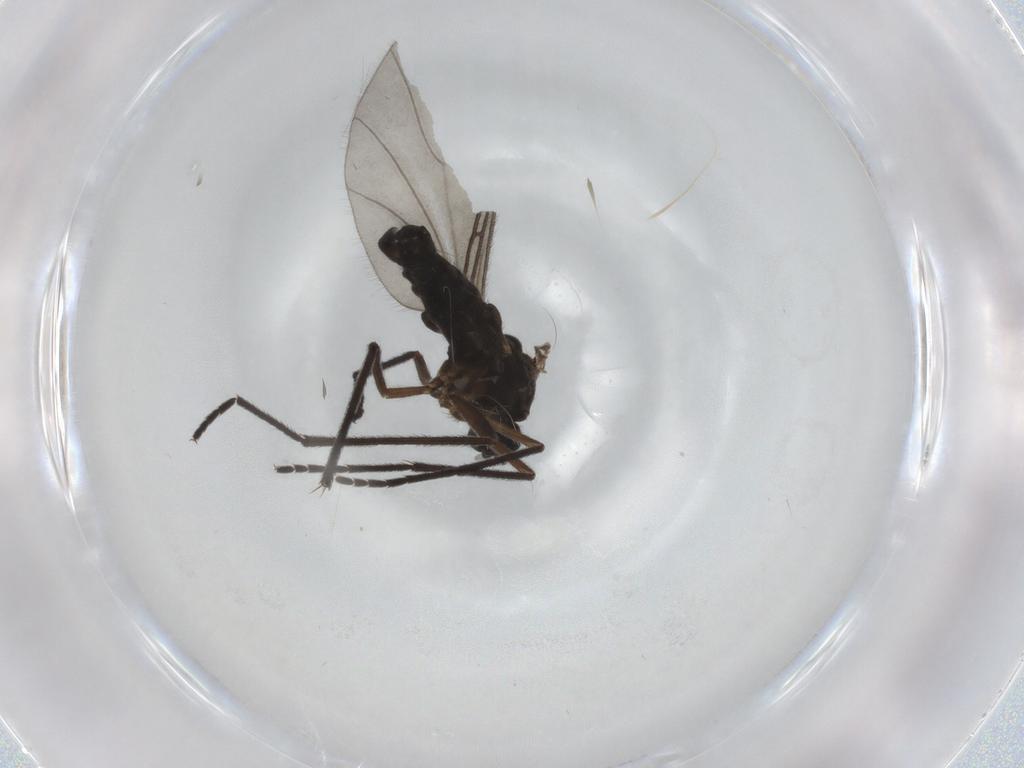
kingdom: Animalia
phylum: Arthropoda
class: Insecta
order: Diptera
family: Sciaridae
